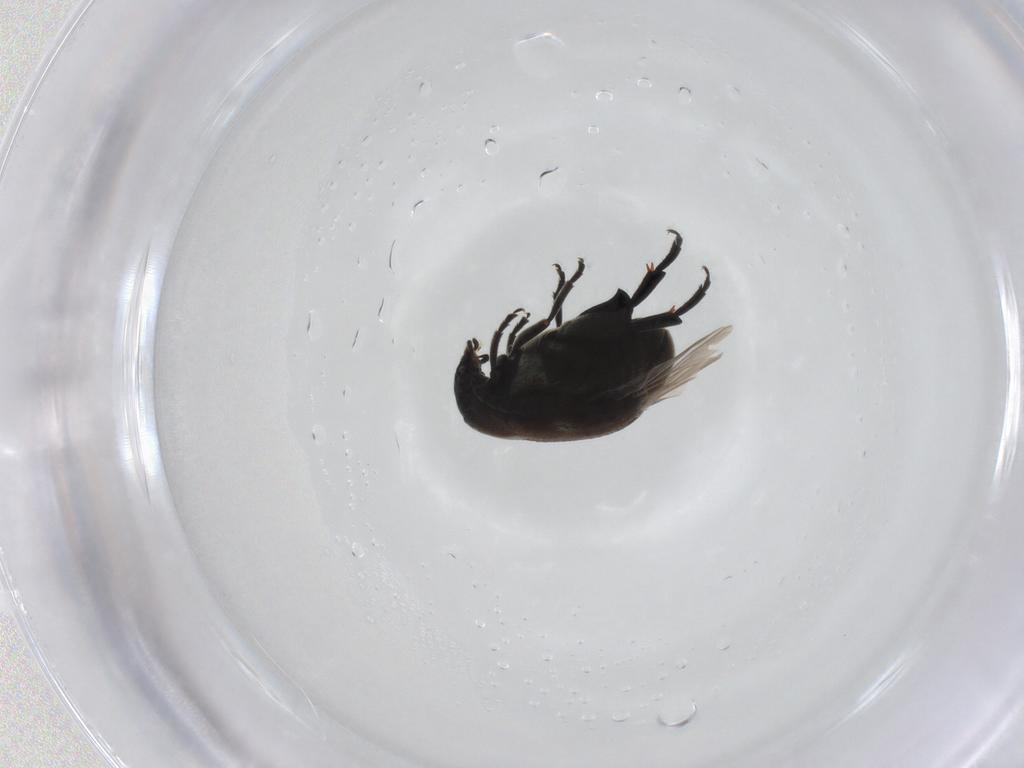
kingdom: Animalia
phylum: Arthropoda
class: Insecta
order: Coleoptera
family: Chrysomelidae
